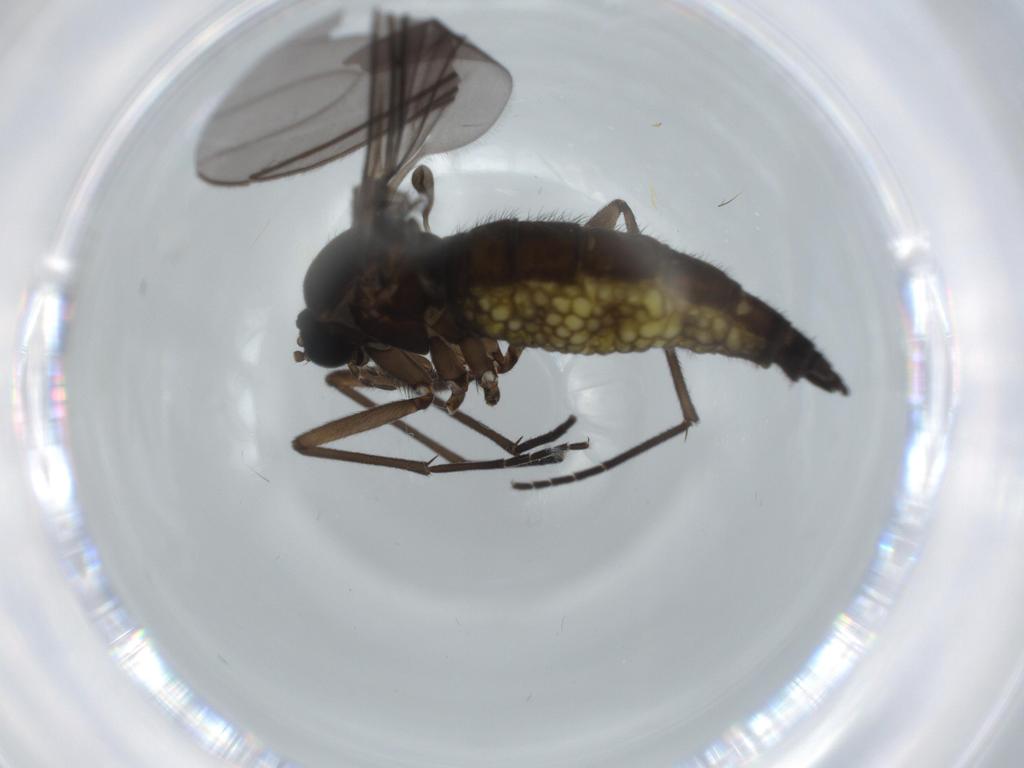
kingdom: Animalia
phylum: Arthropoda
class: Insecta
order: Diptera
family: Sciaridae
